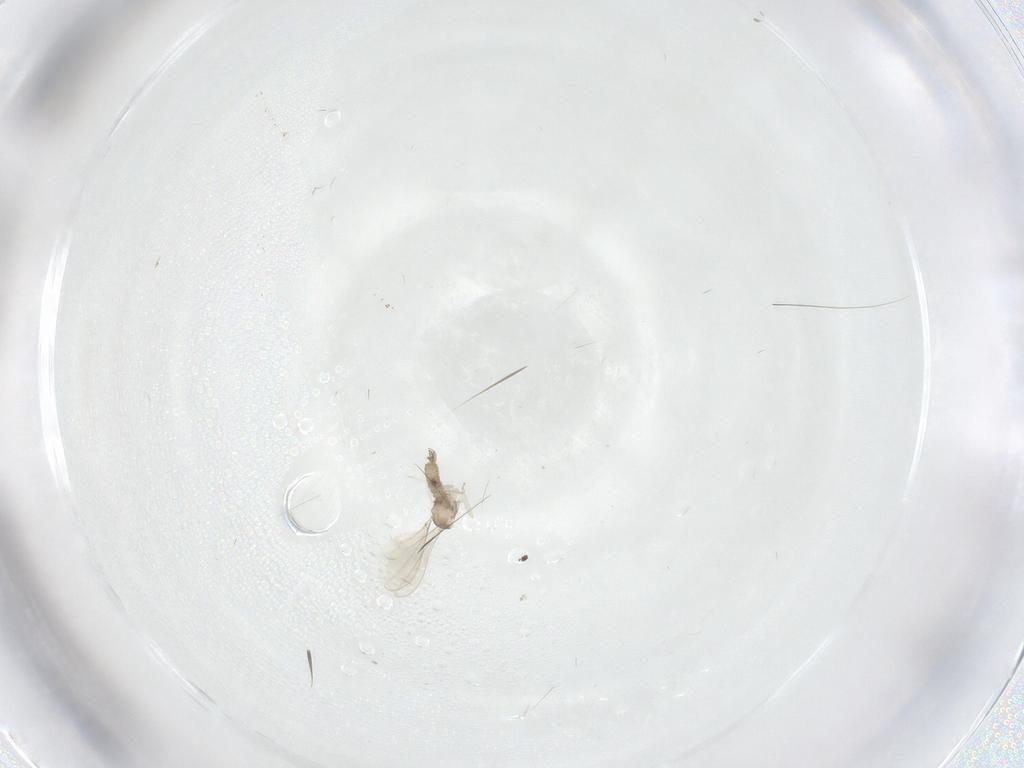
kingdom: Animalia
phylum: Arthropoda
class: Insecta
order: Diptera
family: Cecidomyiidae
